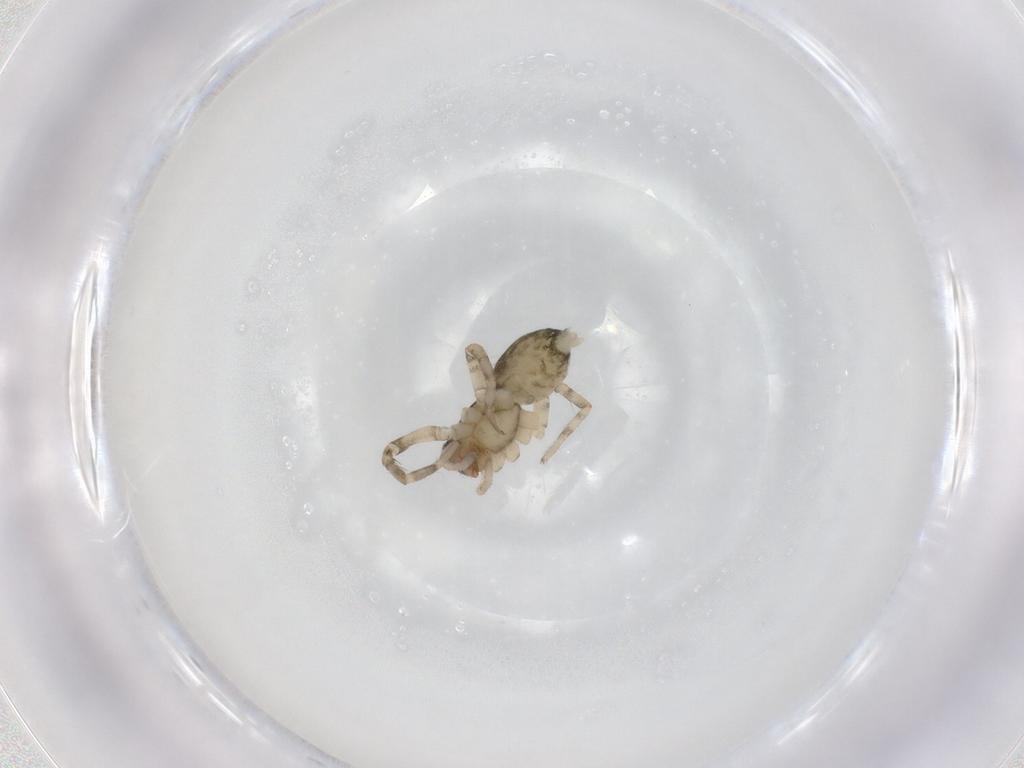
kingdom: Animalia
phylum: Arthropoda
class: Arachnida
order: Araneae
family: Anyphaenidae
